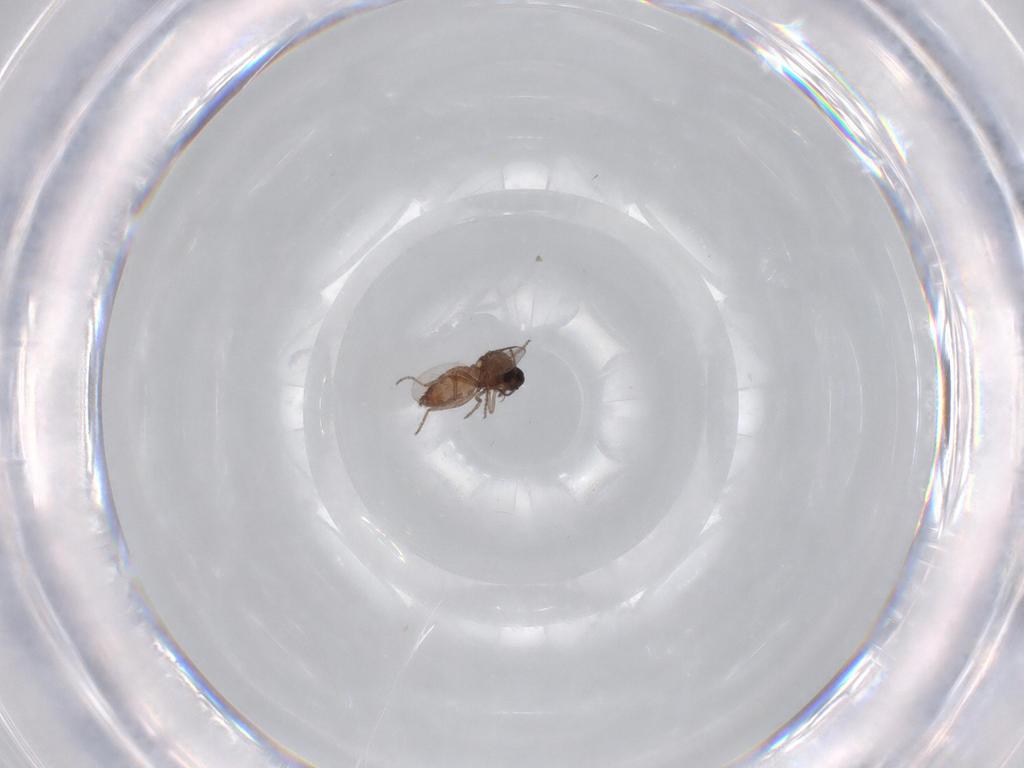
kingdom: Animalia
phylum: Arthropoda
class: Insecta
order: Diptera
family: Ceratopogonidae
